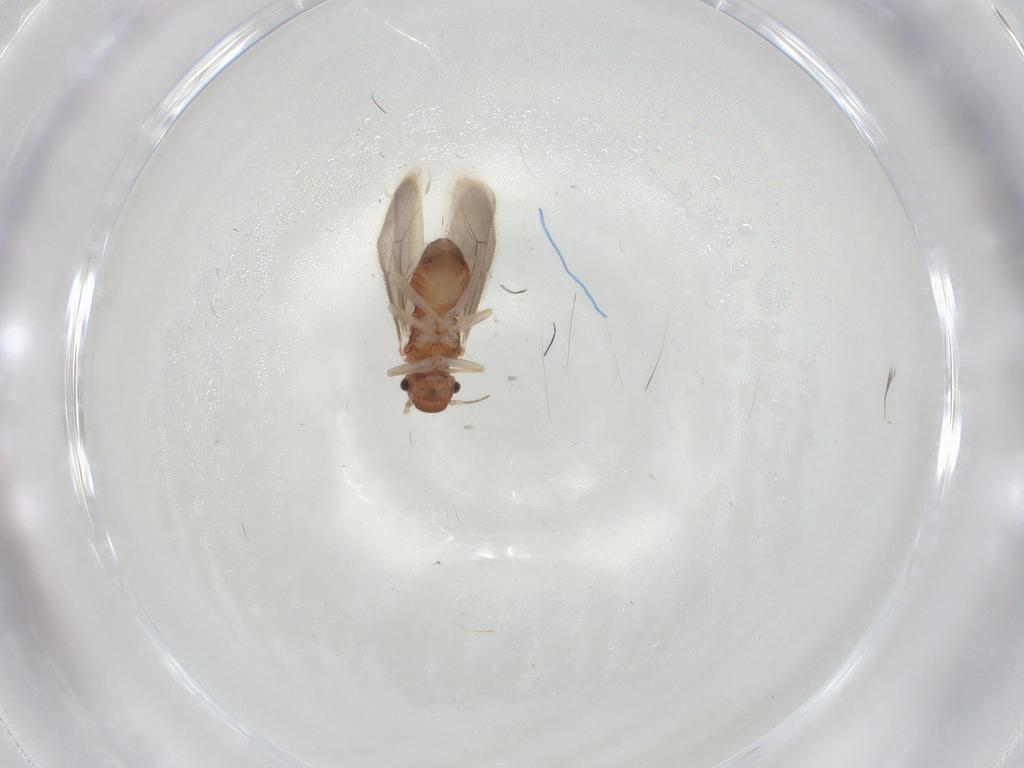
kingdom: Animalia
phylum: Arthropoda
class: Insecta
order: Psocodea
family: Archipsocidae
